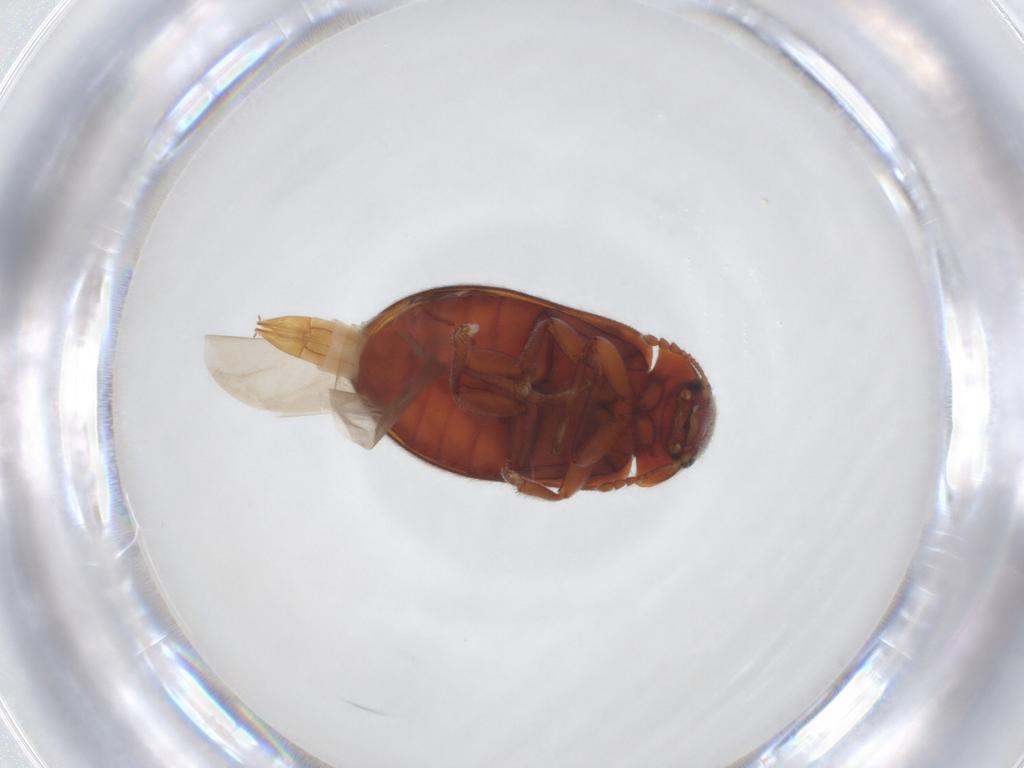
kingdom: Animalia
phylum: Arthropoda
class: Insecta
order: Coleoptera
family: Byturidae
